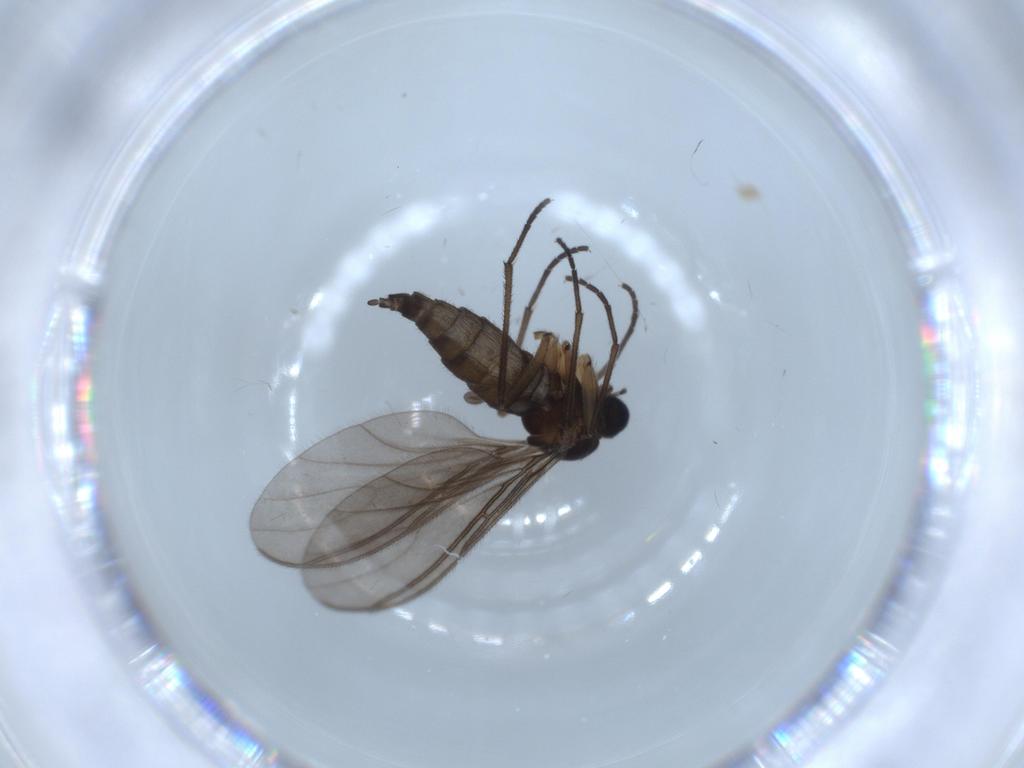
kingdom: Animalia
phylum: Arthropoda
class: Insecta
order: Diptera
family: Sciaridae
